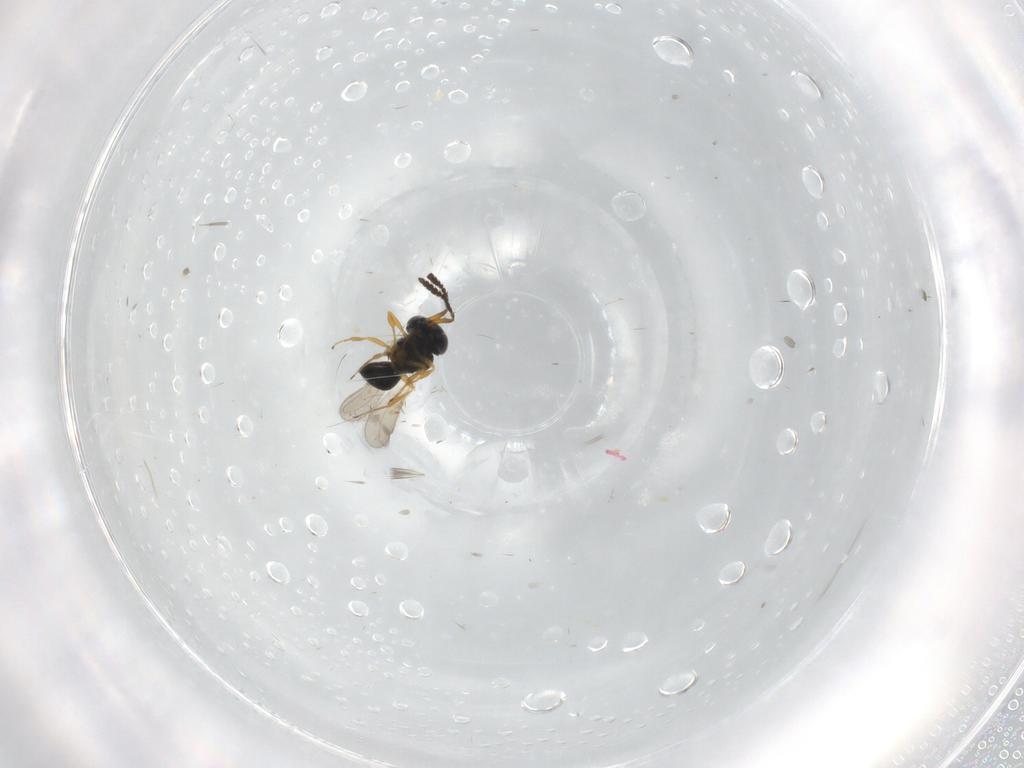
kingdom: Animalia
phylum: Arthropoda
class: Insecta
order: Hymenoptera
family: Scelionidae
